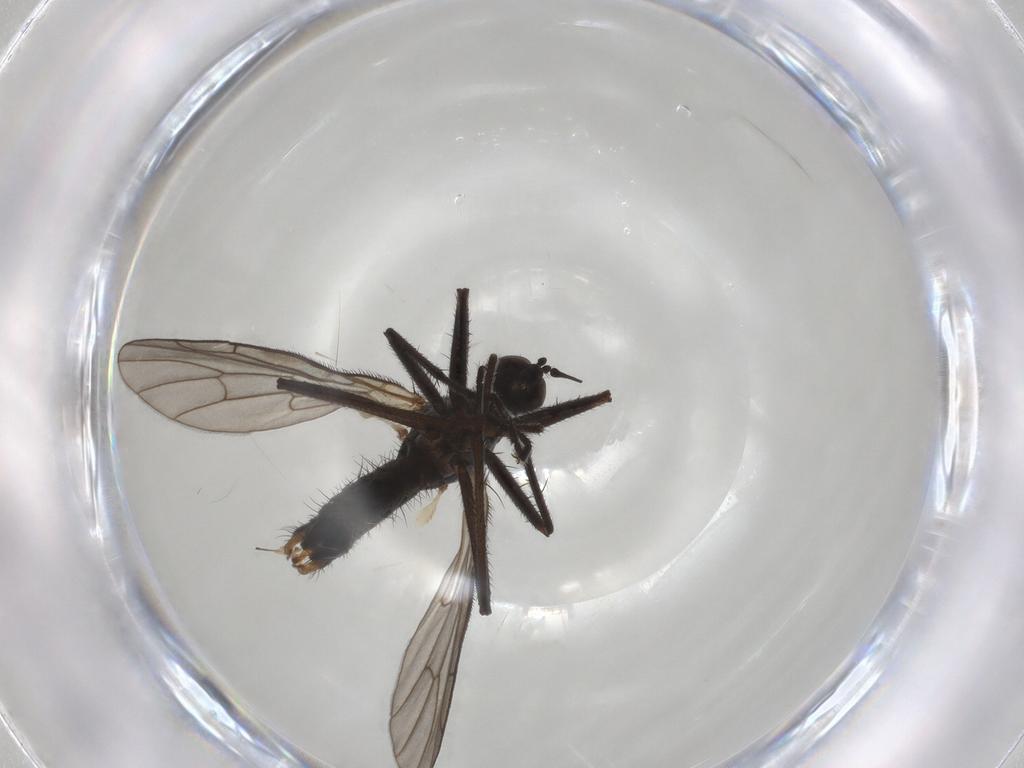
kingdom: Animalia
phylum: Arthropoda
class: Insecta
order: Diptera
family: Empididae
